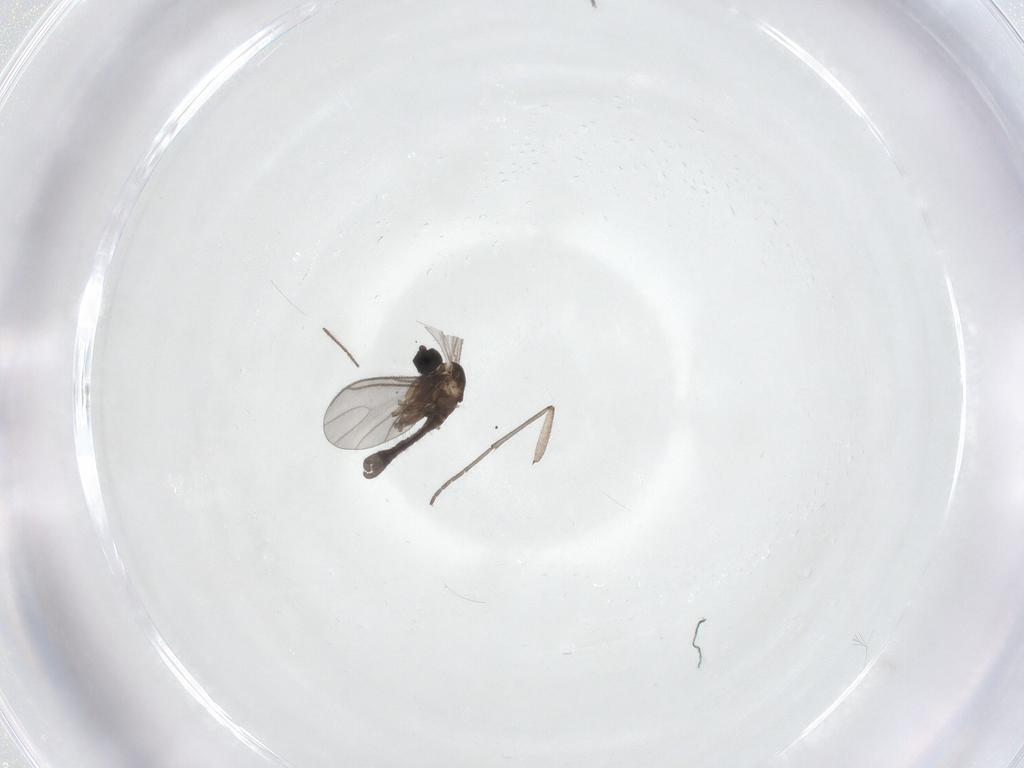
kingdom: Animalia
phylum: Arthropoda
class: Insecta
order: Diptera
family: Sciaridae
